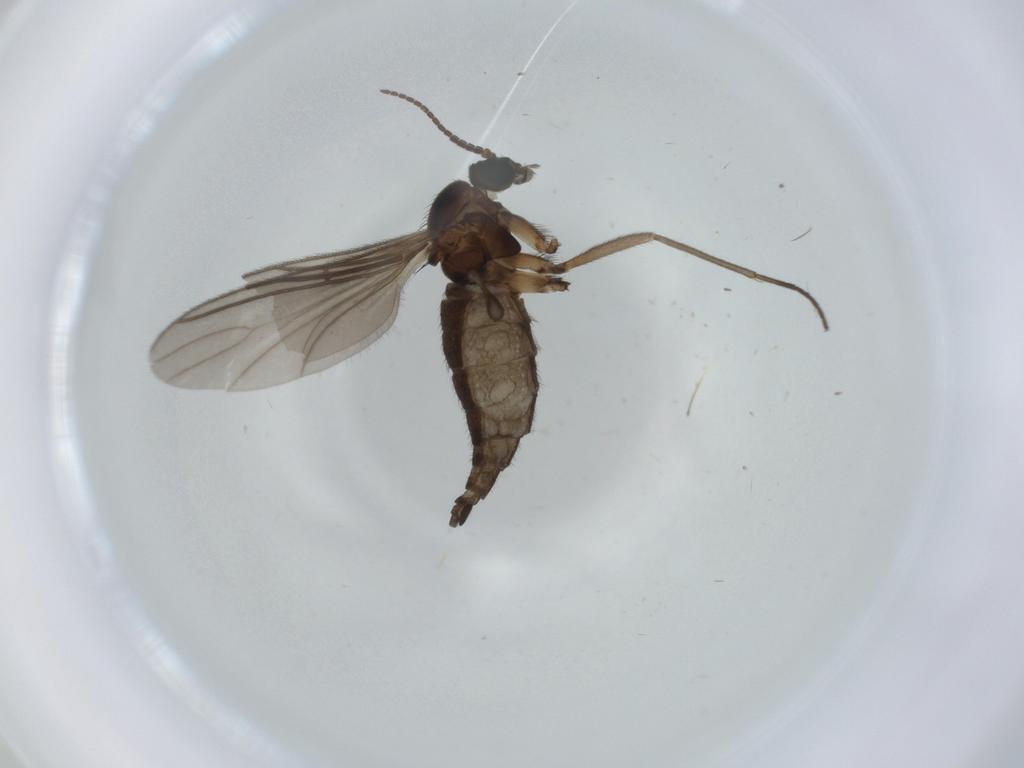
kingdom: Animalia
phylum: Arthropoda
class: Insecta
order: Diptera
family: Sciaridae
